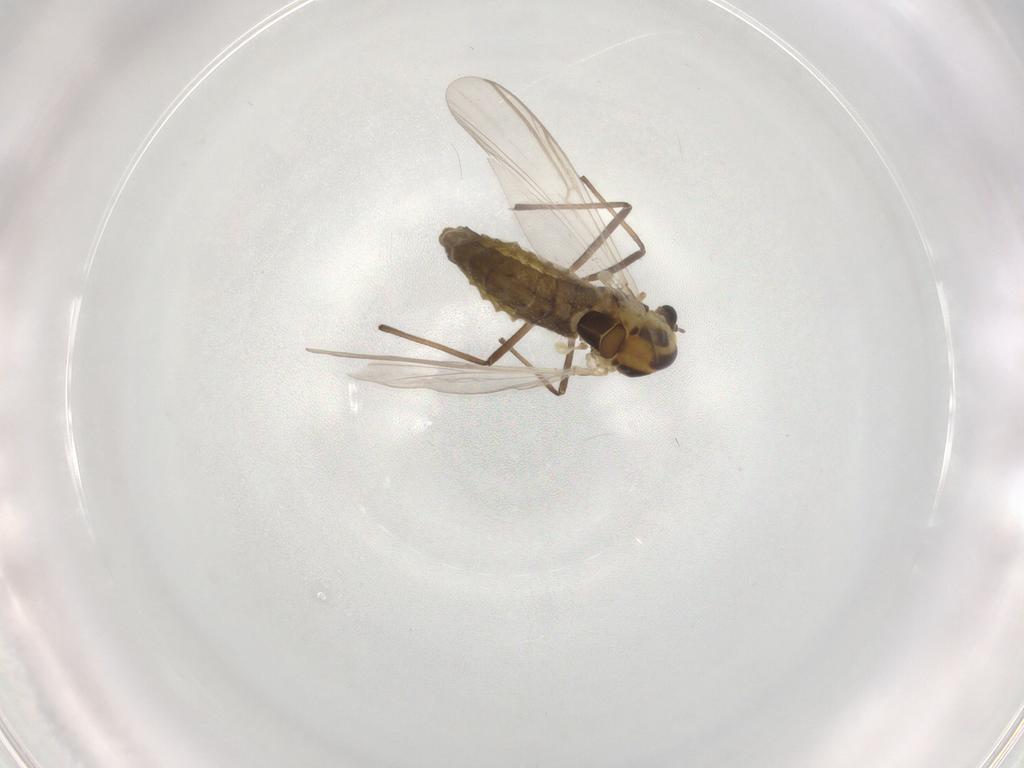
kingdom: Animalia
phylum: Arthropoda
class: Insecta
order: Diptera
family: Chironomidae
